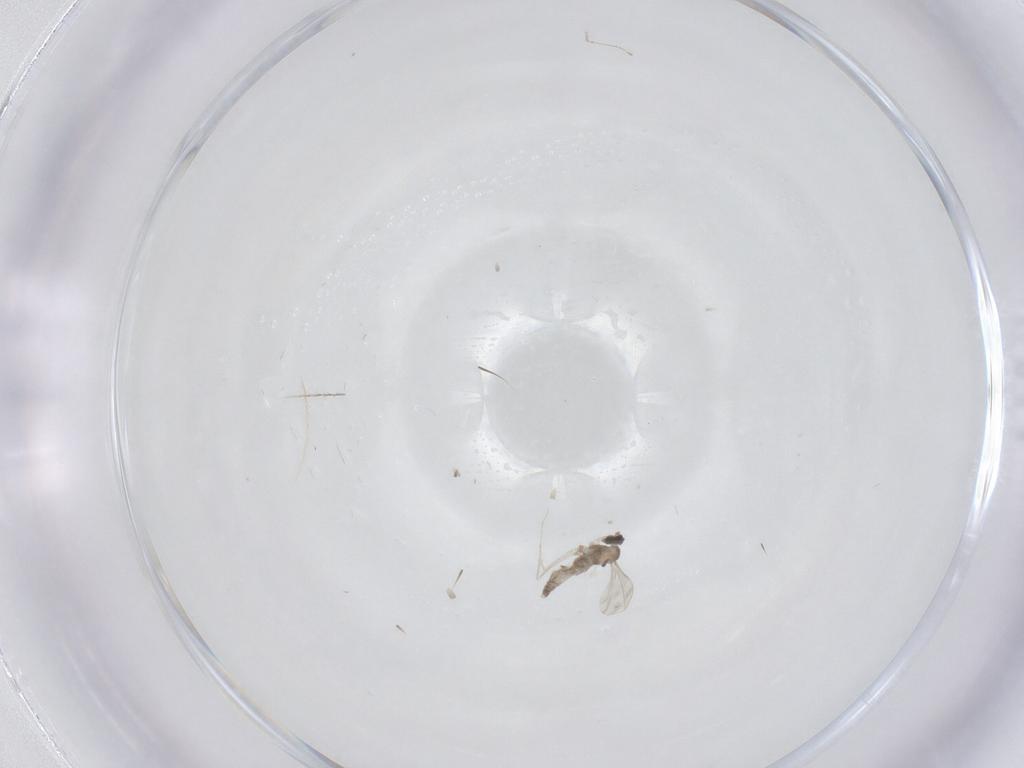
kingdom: Animalia
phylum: Arthropoda
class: Insecta
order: Diptera
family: Cecidomyiidae
